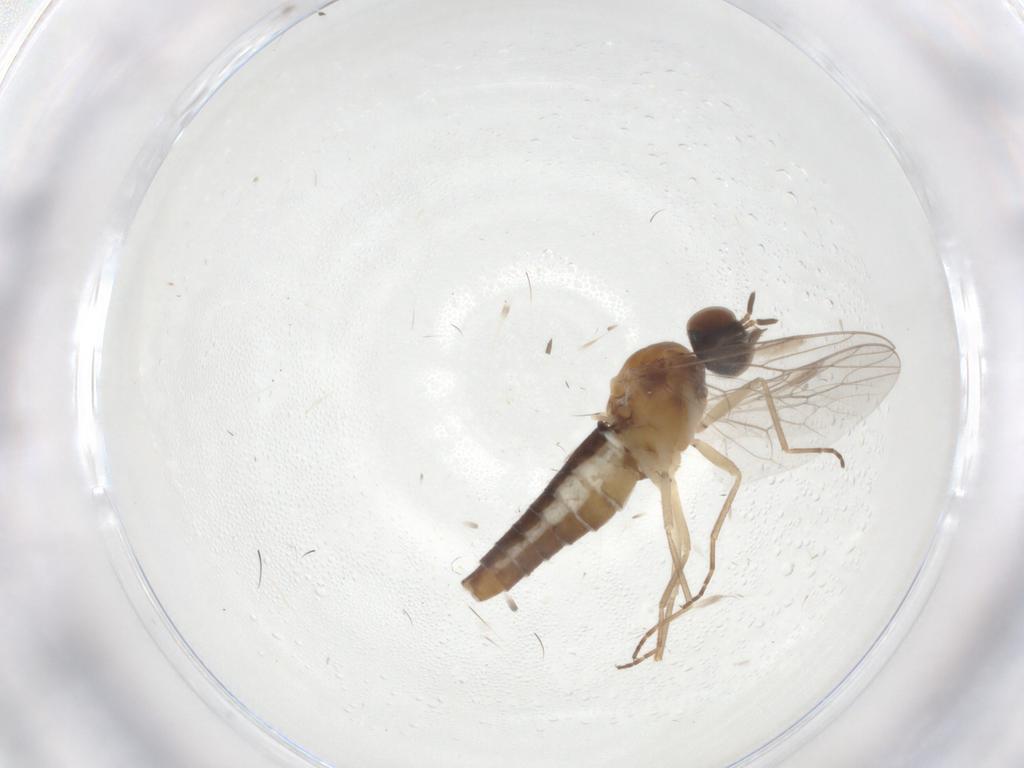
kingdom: Animalia
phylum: Arthropoda
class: Insecta
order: Diptera
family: Scenopinidae
